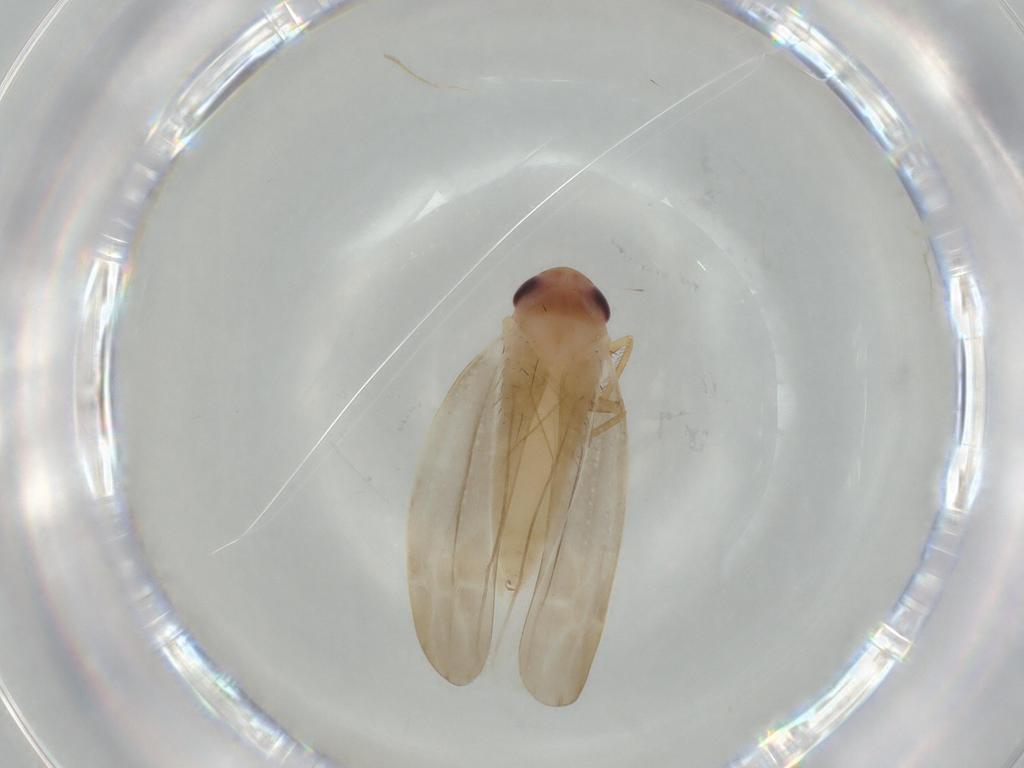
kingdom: Animalia
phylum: Arthropoda
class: Insecta
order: Hemiptera
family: Cicadellidae
